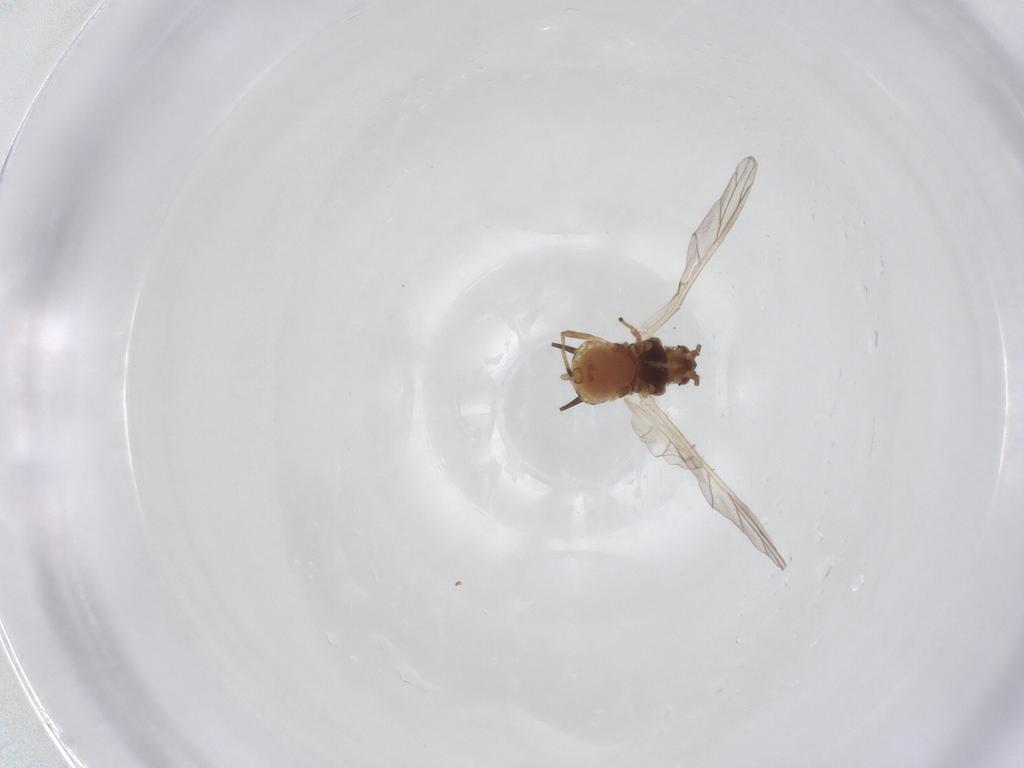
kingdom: Animalia
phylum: Arthropoda
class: Insecta
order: Hemiptera
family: Aphididae
